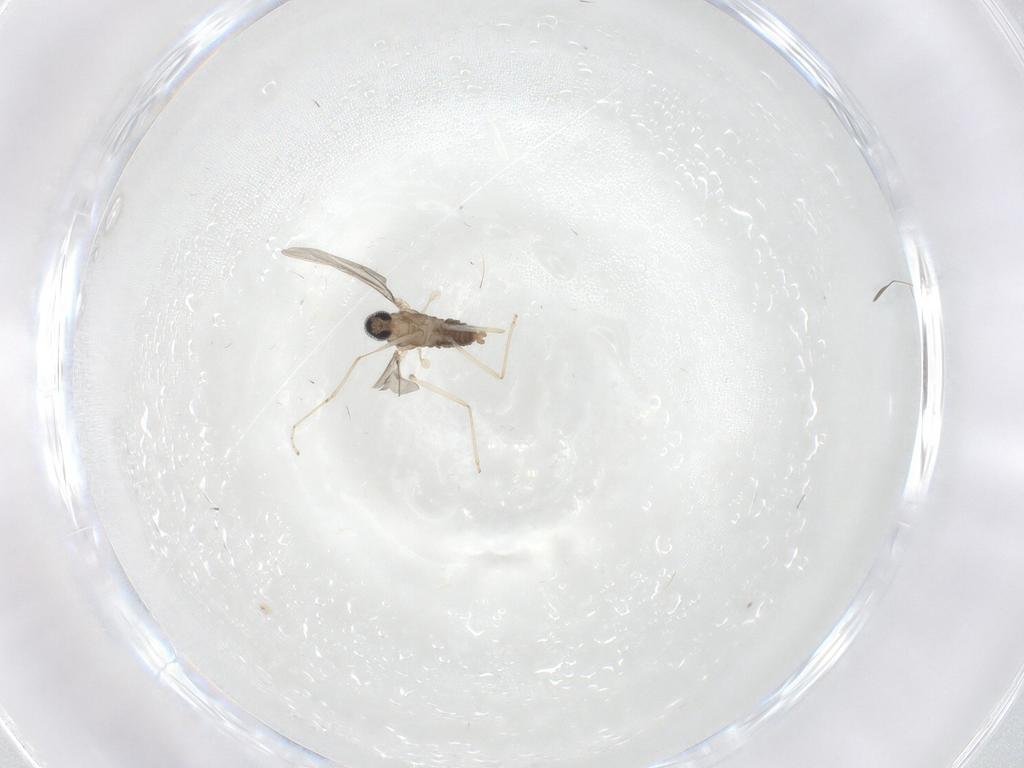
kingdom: Animalia
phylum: Arthropoda
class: Insecta
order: Diptera
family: Cecidomyiidae
